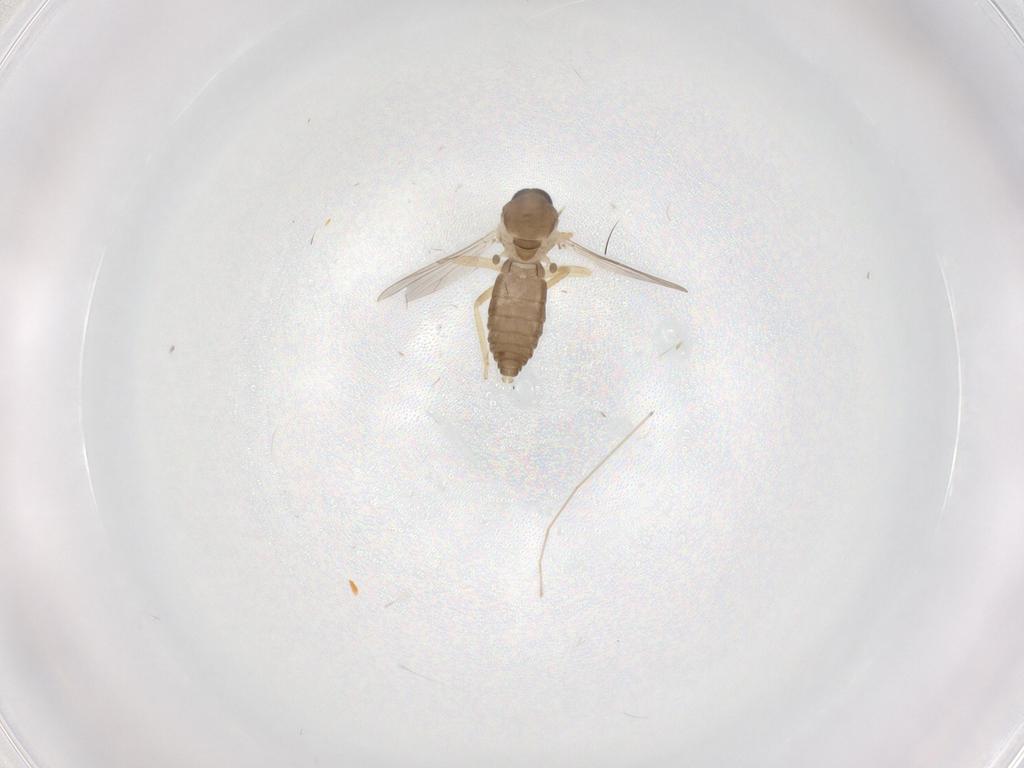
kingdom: Animalia
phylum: Arthropoda
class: Insecta
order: Diptera
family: Ceratopogonidae
